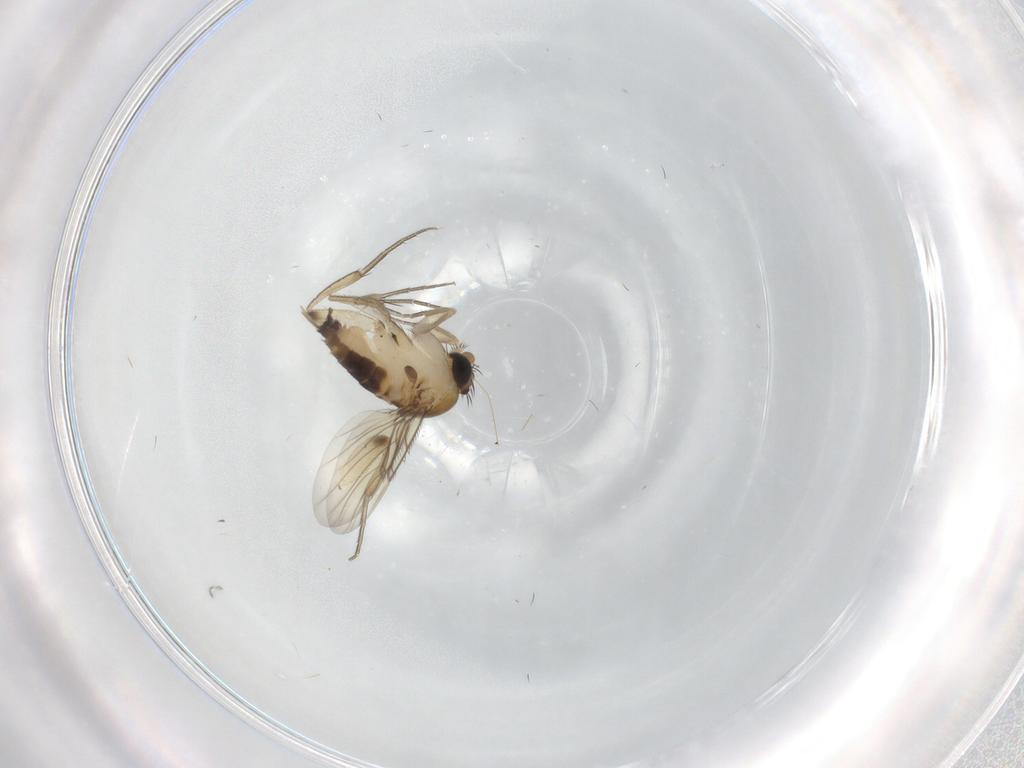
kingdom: Animalia
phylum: Arthropoda
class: Insecta
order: Diptera
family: Phoridae
